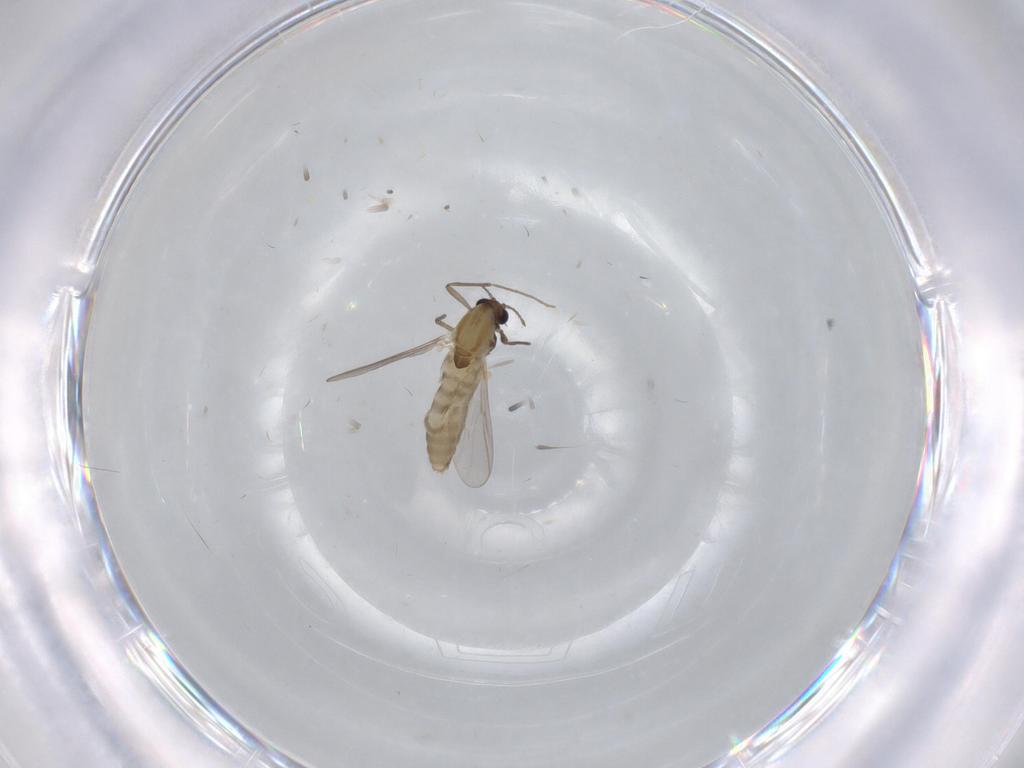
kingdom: Animalia
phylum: Arthropoda
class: Insecta
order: Diptera
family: Chironomidae
